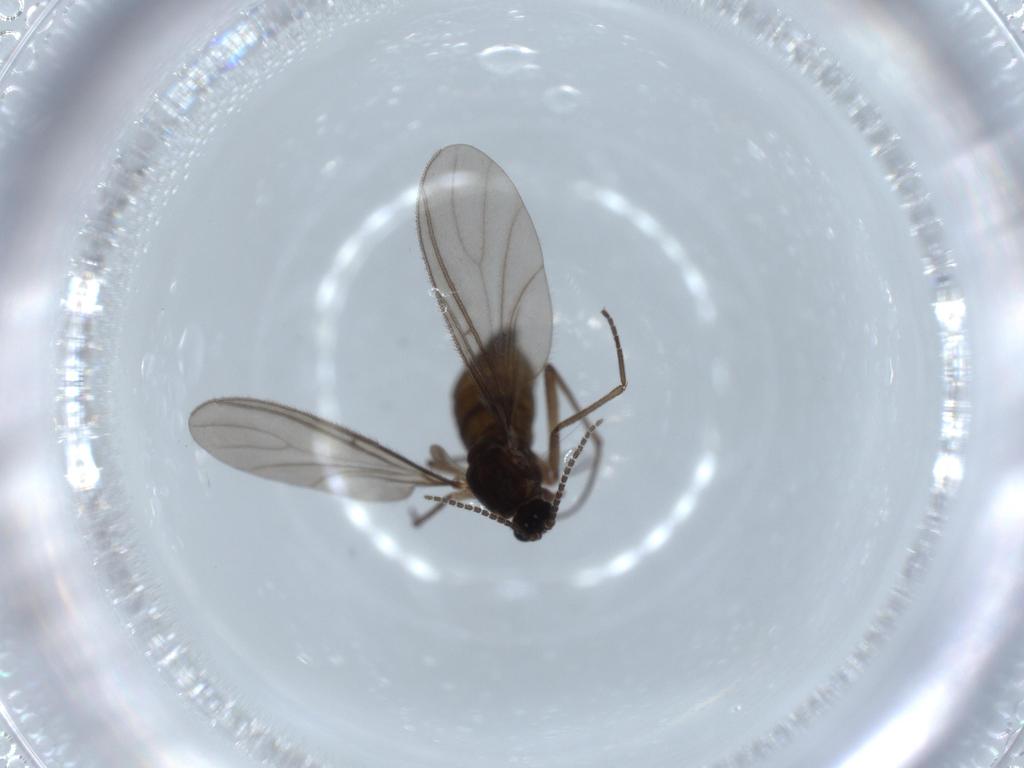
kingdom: Animalia
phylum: Arthropoda
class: Insecta
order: Diptera
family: Sciaridae
